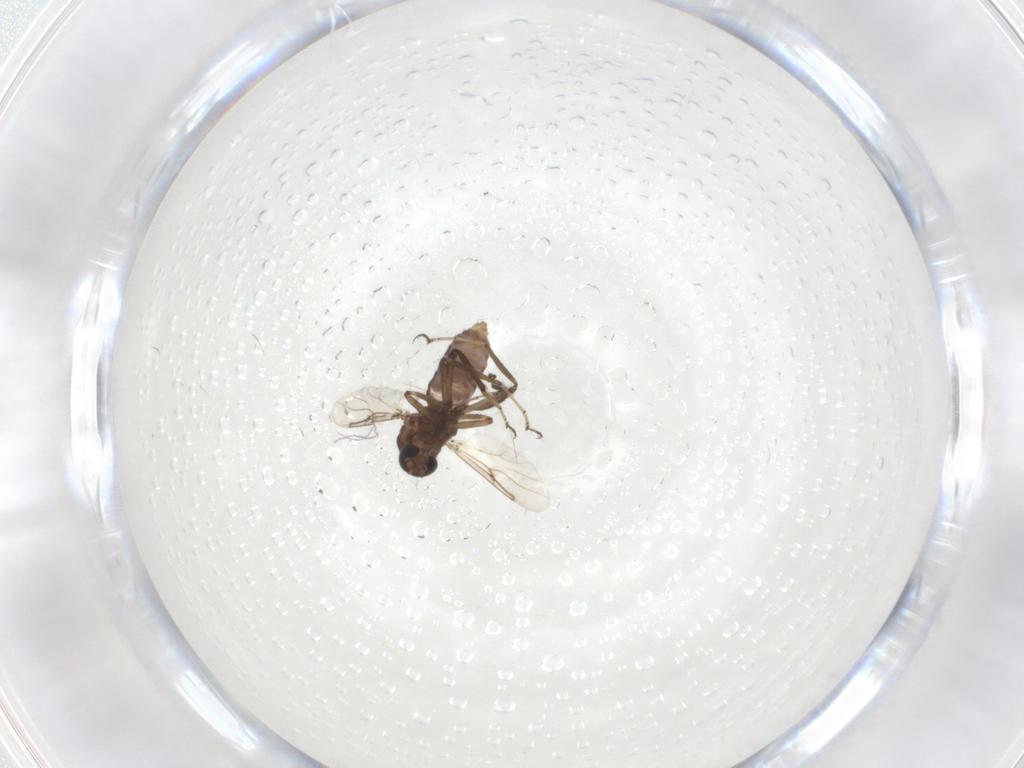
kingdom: Animalia
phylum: Arthropoda
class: Insecta
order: Diptera
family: Ceratopogonidae
